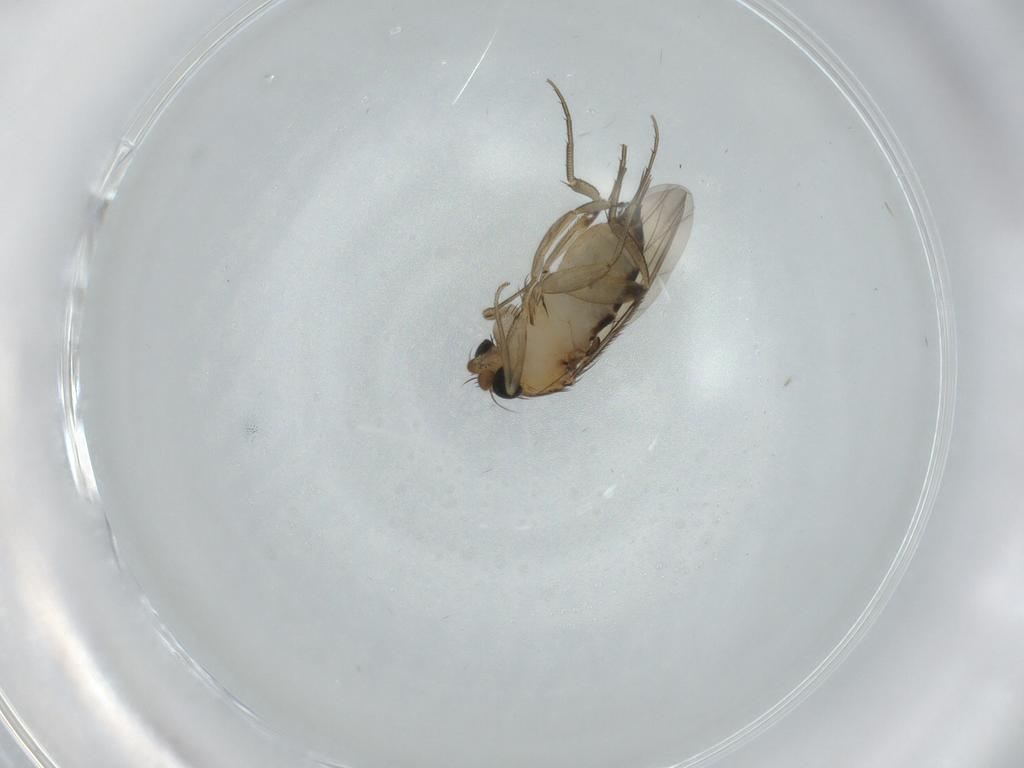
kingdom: Animalia
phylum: Arthropoda
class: Insecta
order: Diptera
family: Phoridae
